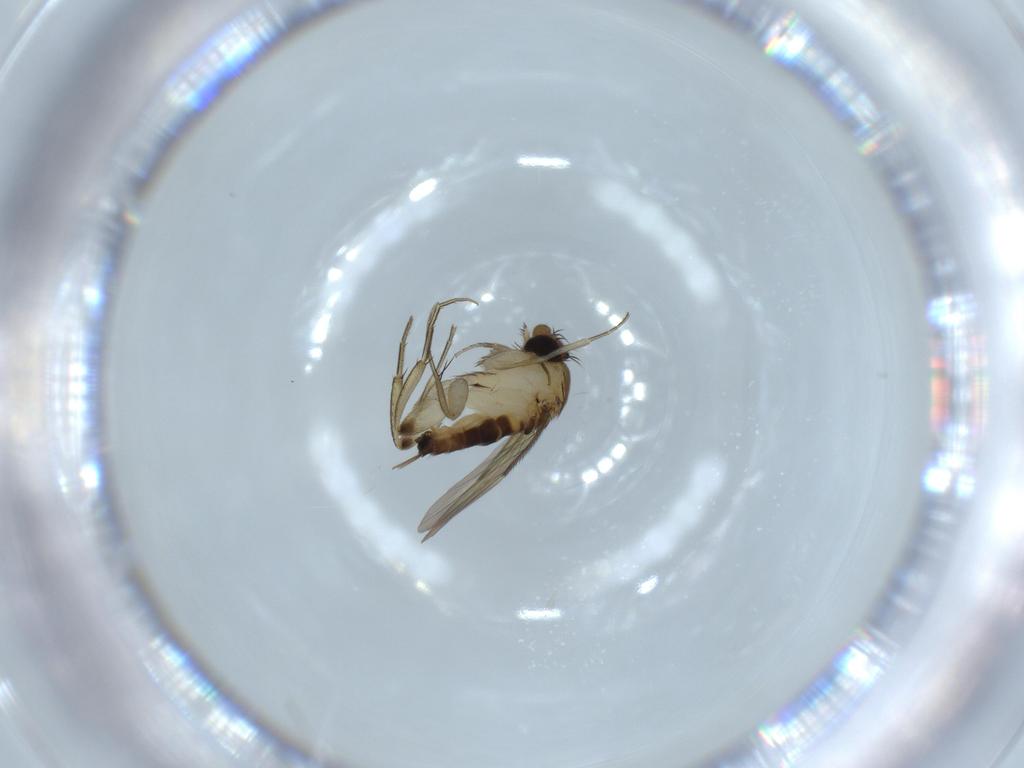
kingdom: Animalia
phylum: Arthropoda
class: Insecta
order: Diptera
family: Phoridae
